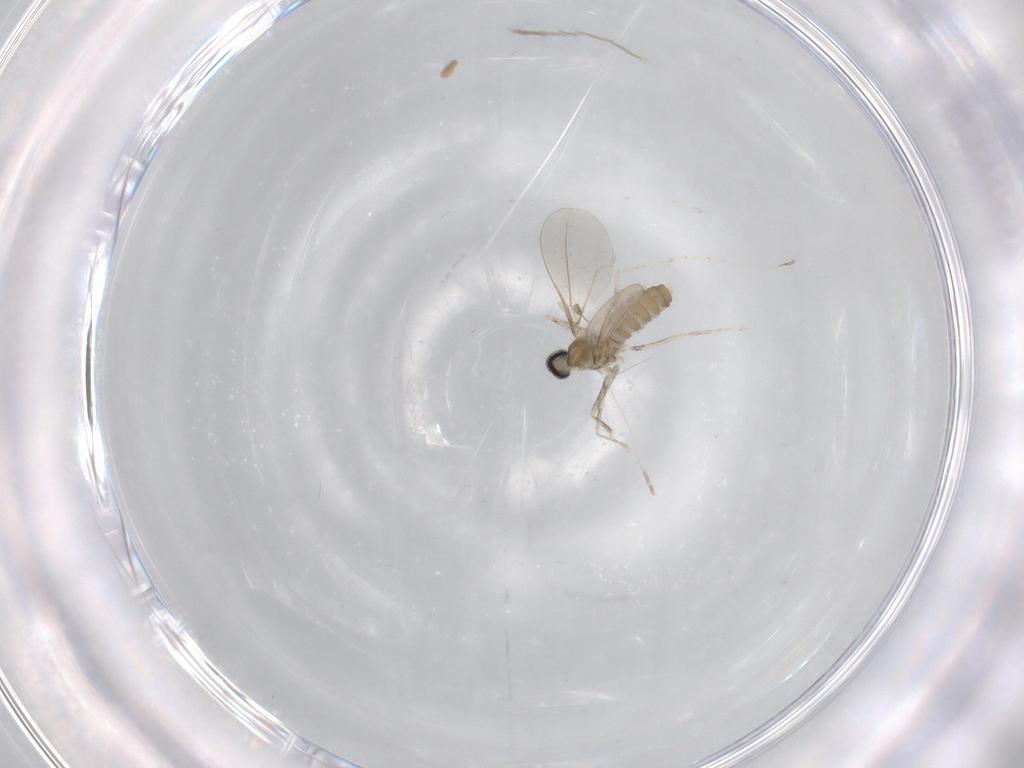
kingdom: Animalia
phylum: Arthropoda
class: Insecta
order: Diptera
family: Cecidomyiidae
